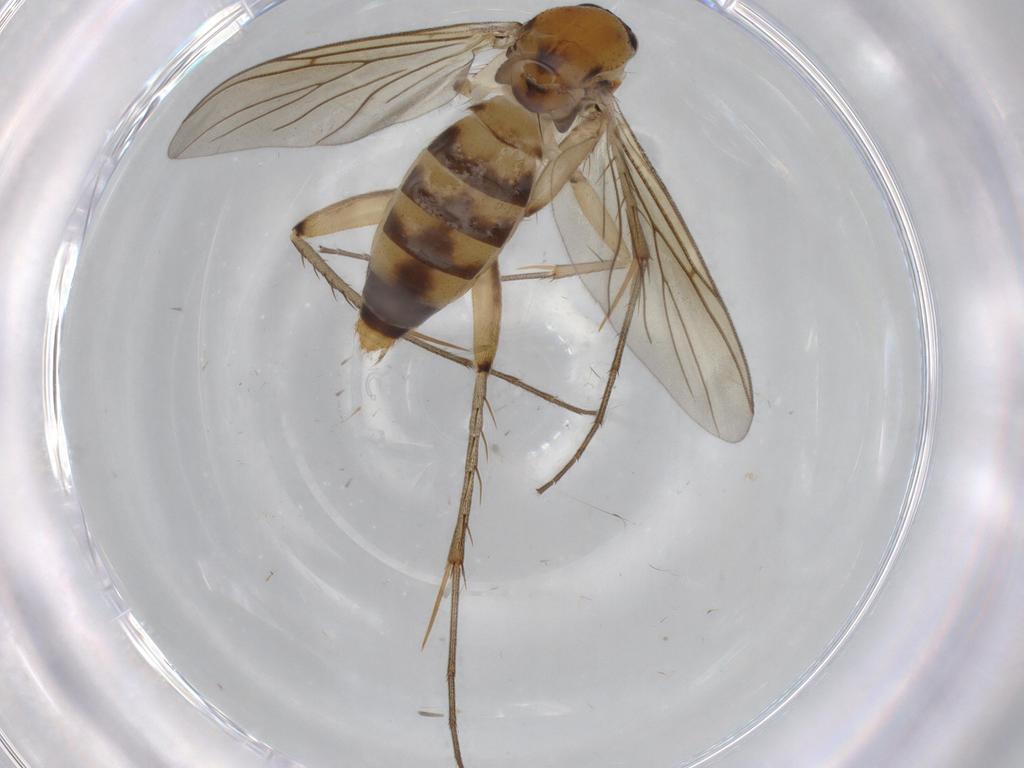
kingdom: Animalia
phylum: Arthropoda
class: Insecta
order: Diptera
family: Mycetophilidae
